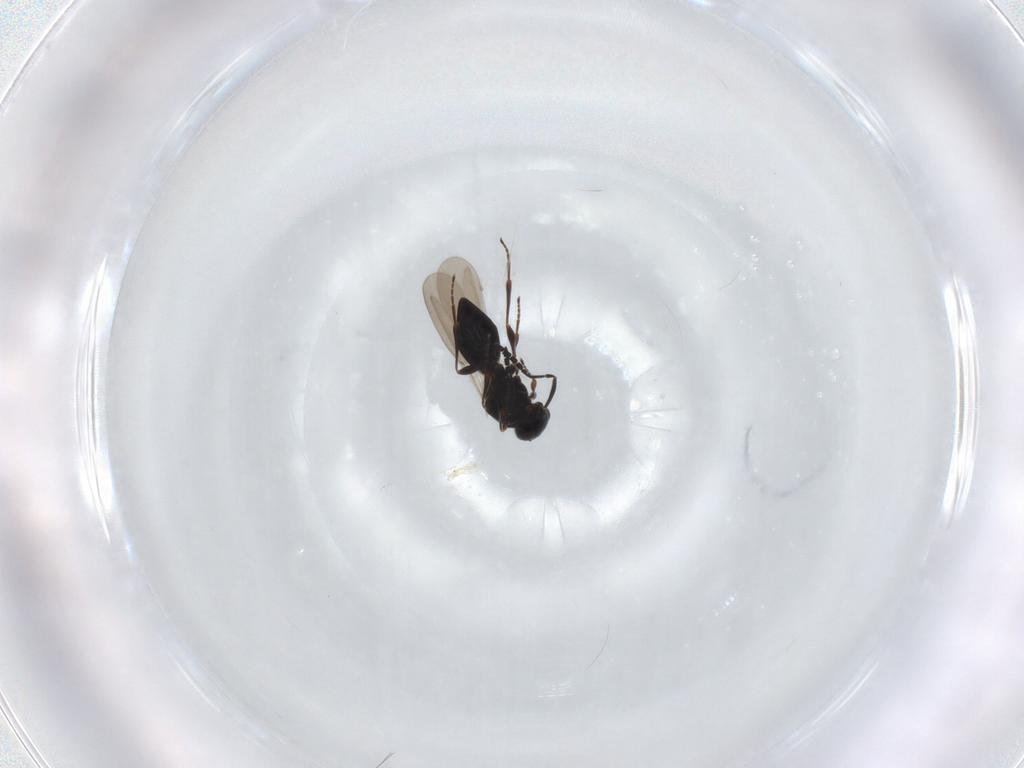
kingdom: Animalia
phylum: Arthropoda
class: Insecta
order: Hymenoptera
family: Platygastridae
